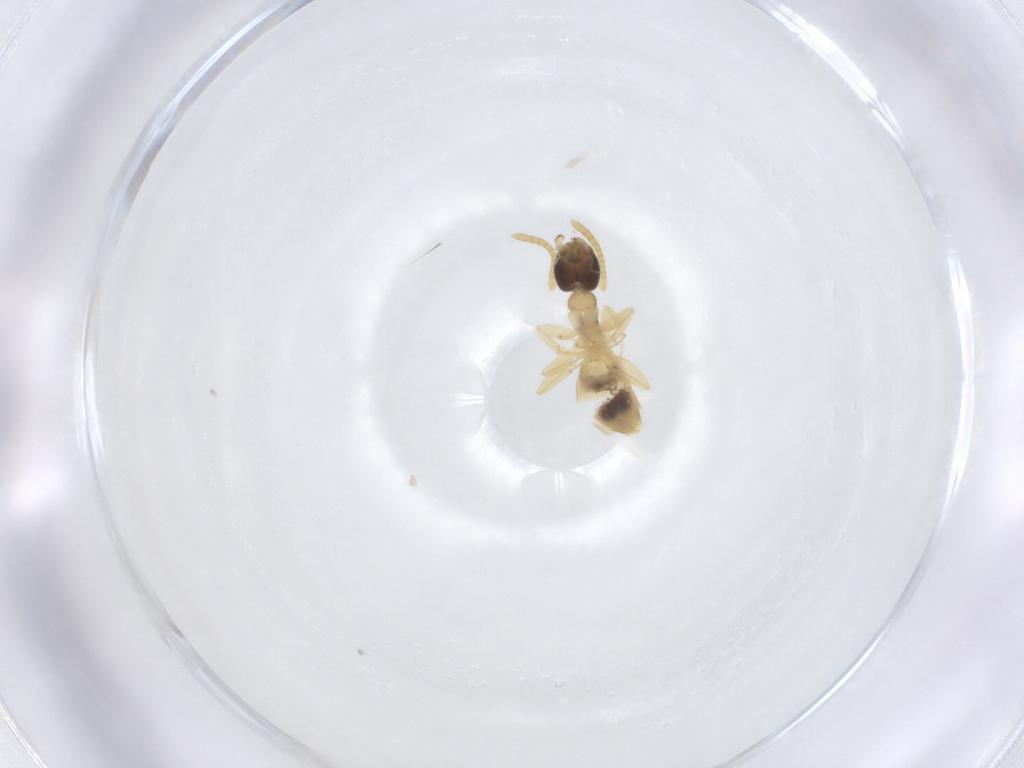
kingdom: Animalia
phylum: Arthropoda
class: Insecta
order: Hymenoptera
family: Formicidae
